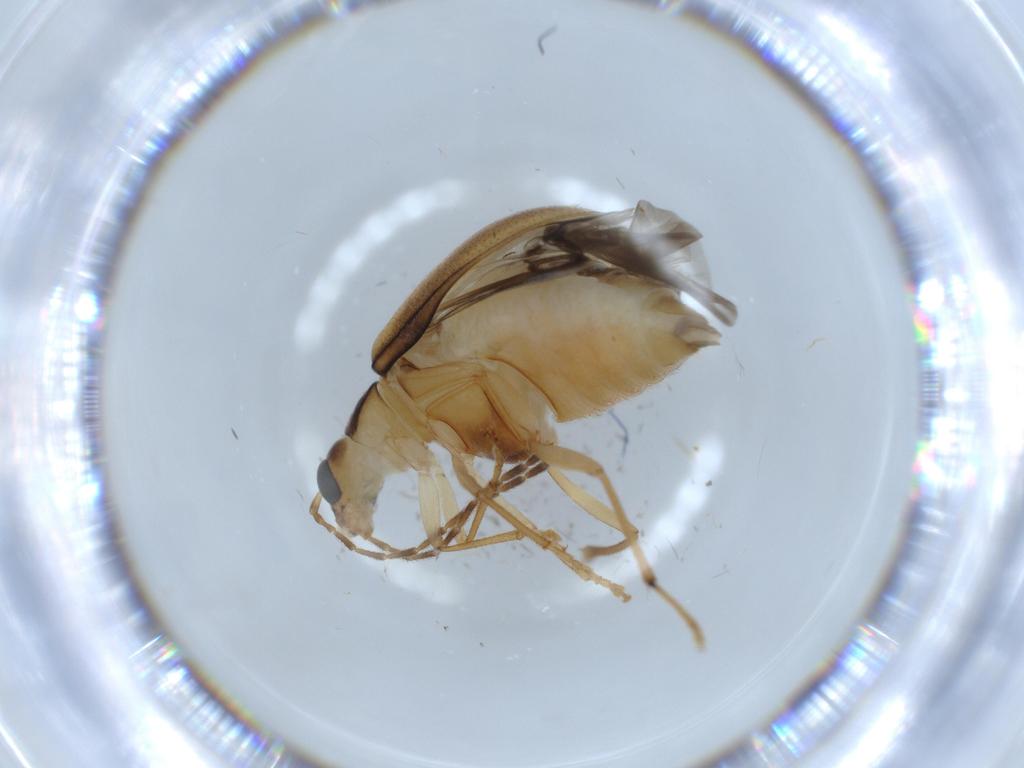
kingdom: Animalia
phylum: Arthropoda
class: Insecta
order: Coleoptera
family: Chrysomelidae
